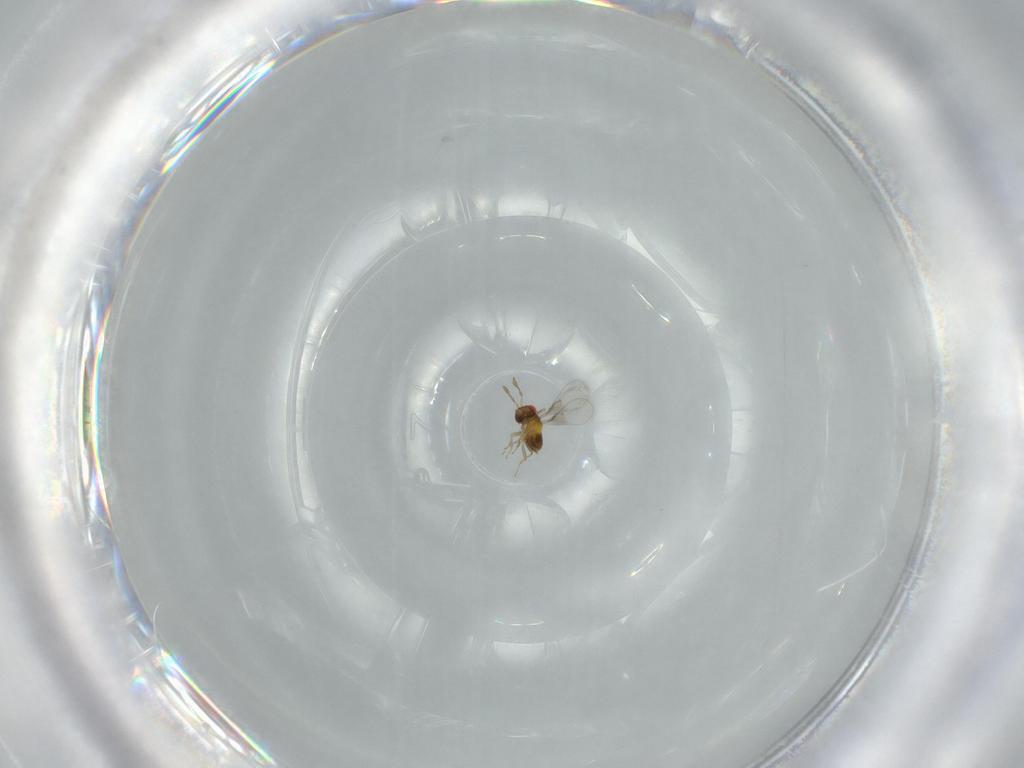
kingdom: Animalia
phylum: Arthropoda
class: Insecta
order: Hymenoptera
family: Trichogrammatidae
